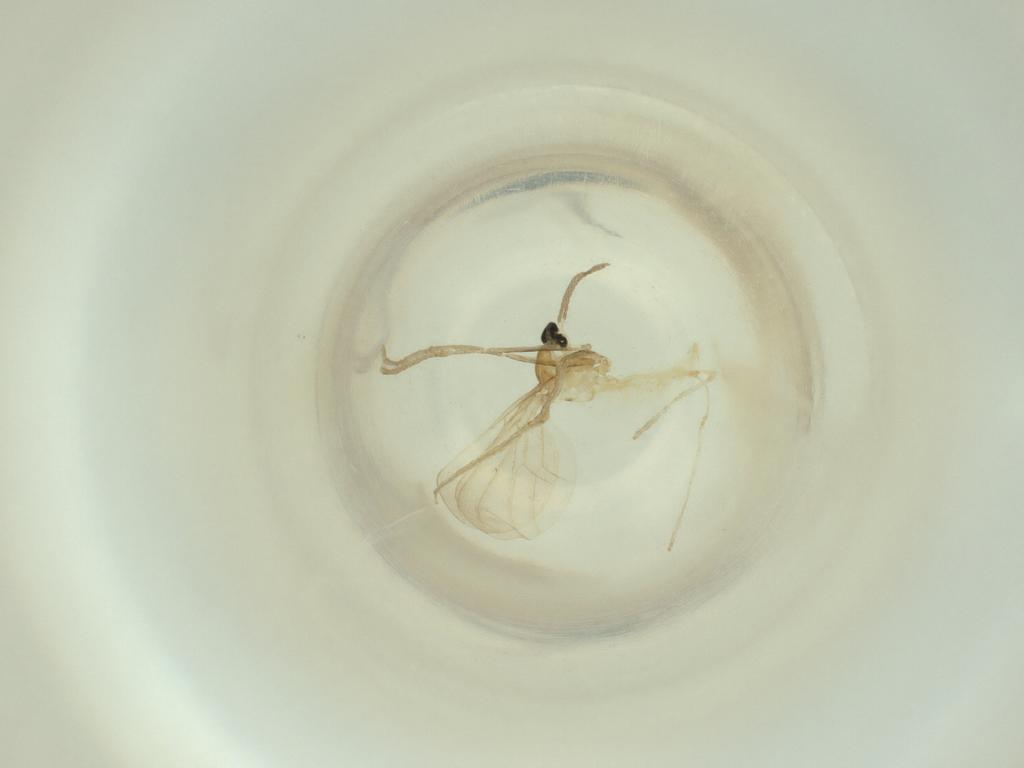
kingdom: Animalia
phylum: Arthropoda
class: Insecta
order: Diptera
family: Cecidomyiidae
